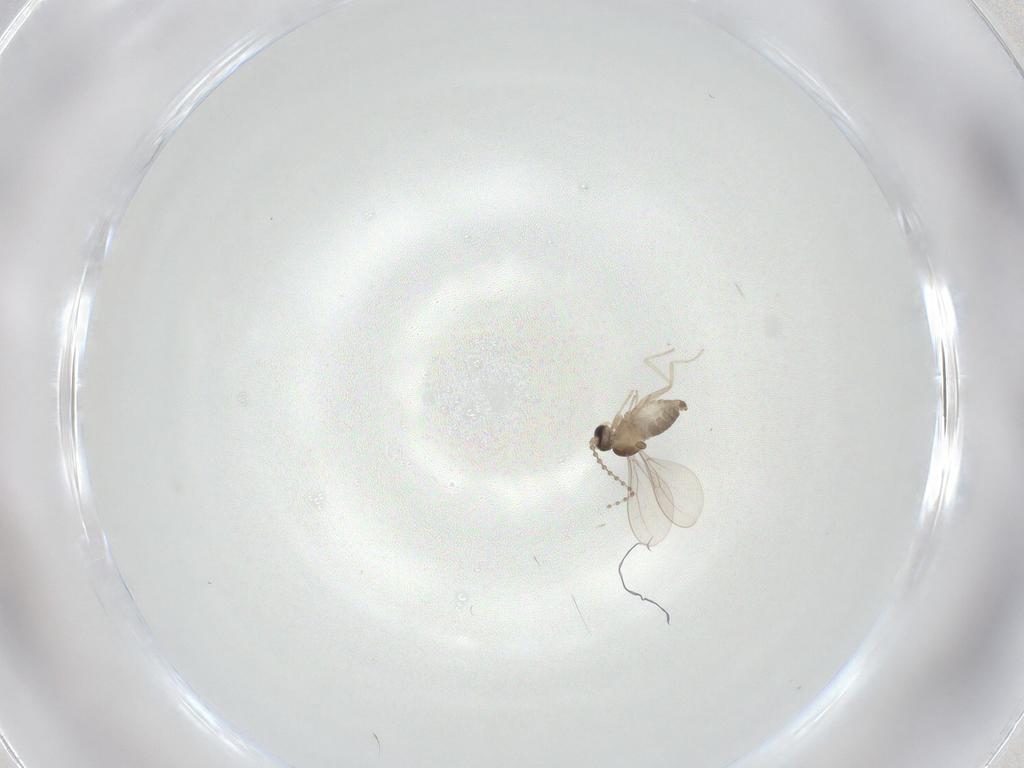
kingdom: Animalia
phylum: Arthropoda
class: Insecta
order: Diptera
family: Cecidomyiidae
